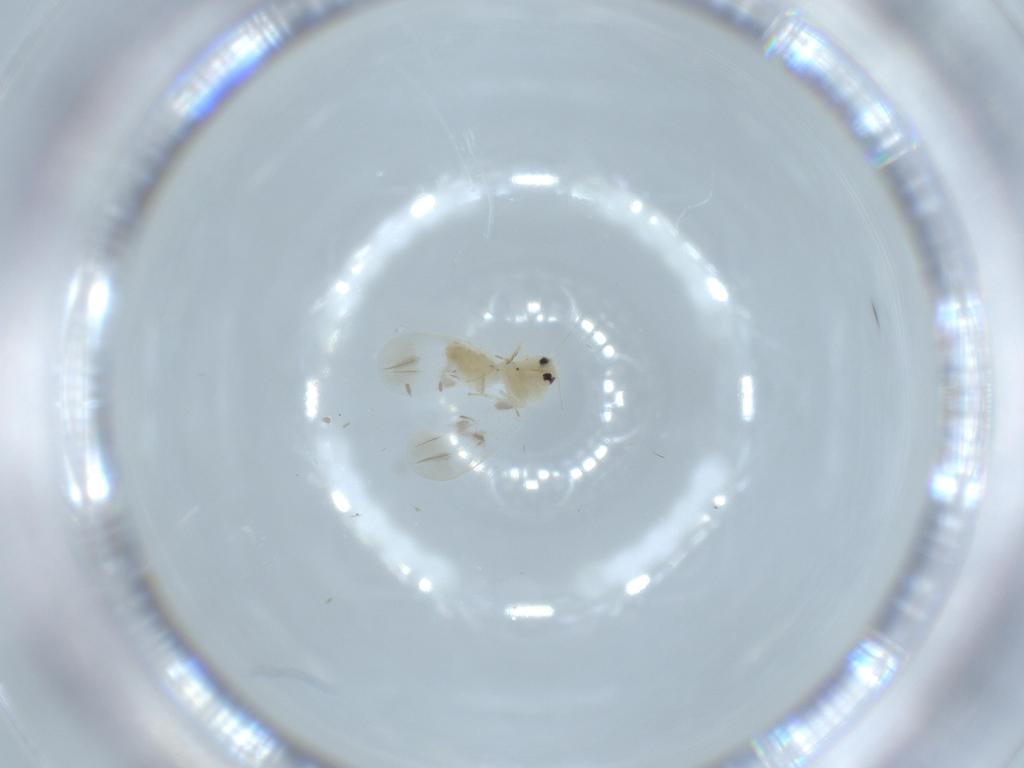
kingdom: Animalia
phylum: Arthropoda
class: Insecta
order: Hemiptera
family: Aleyrodidae
